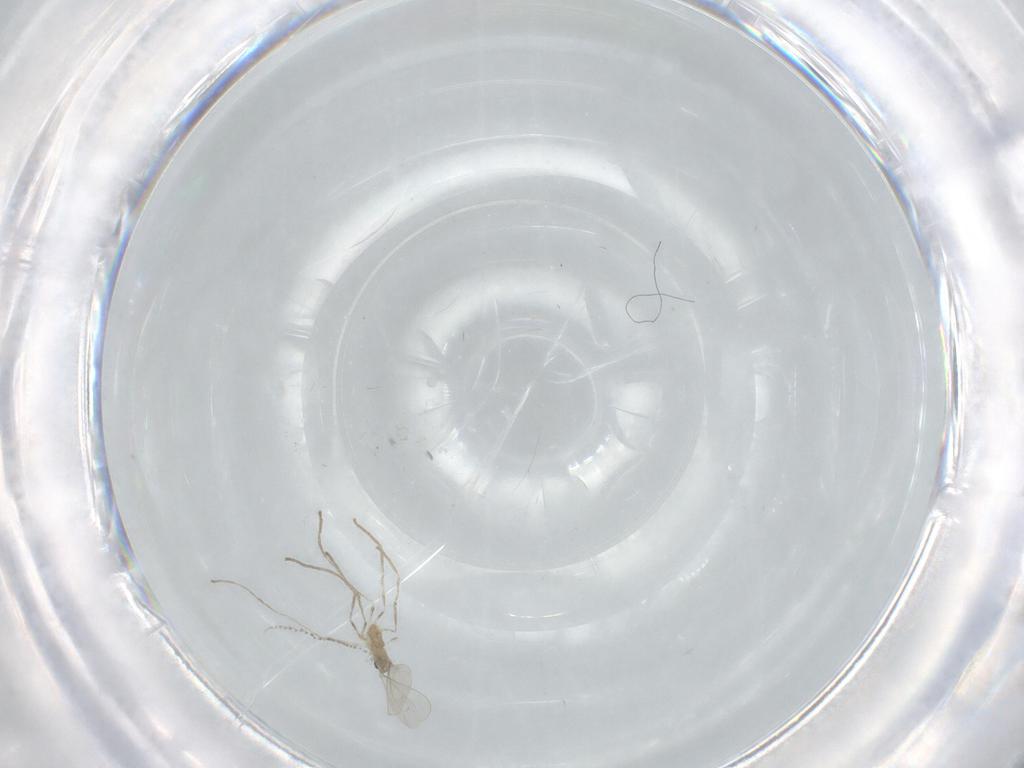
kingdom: Animalia
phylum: Arthropoda
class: Insecta
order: Diptera
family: Cecidomyiidae
